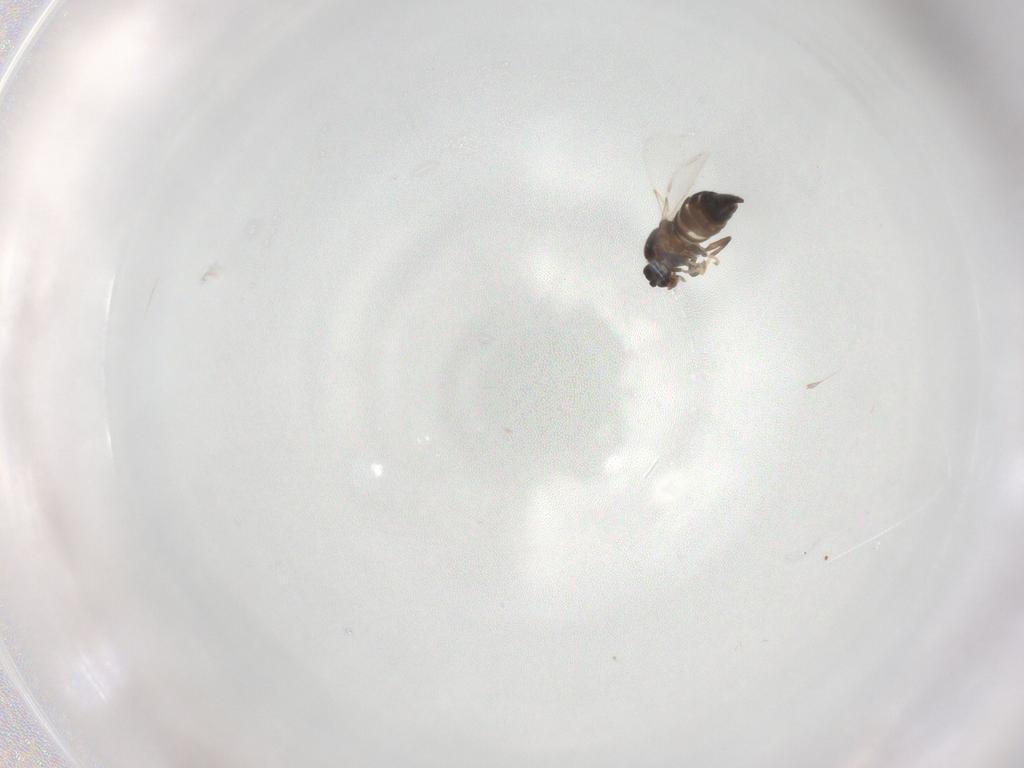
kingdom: Animalia
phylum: Arthropoda
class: Insecta
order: Diptera
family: Scatopsidae
